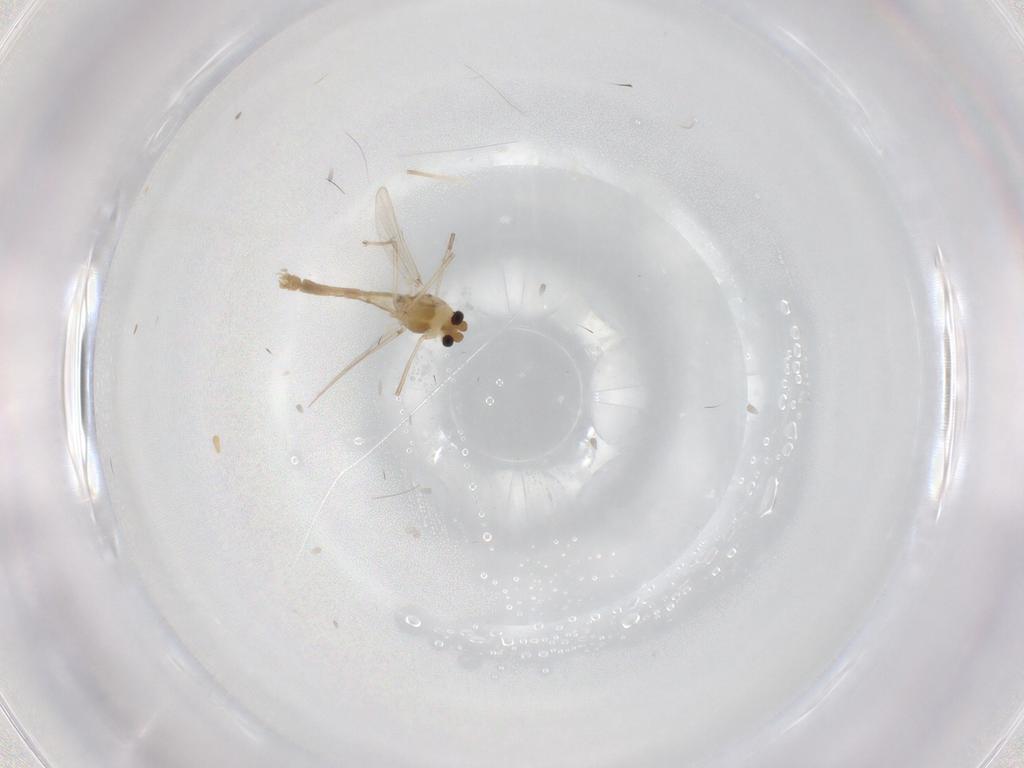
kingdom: Animalia
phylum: Arthropoda
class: Insecta
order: Diptera
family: Chironomidae
